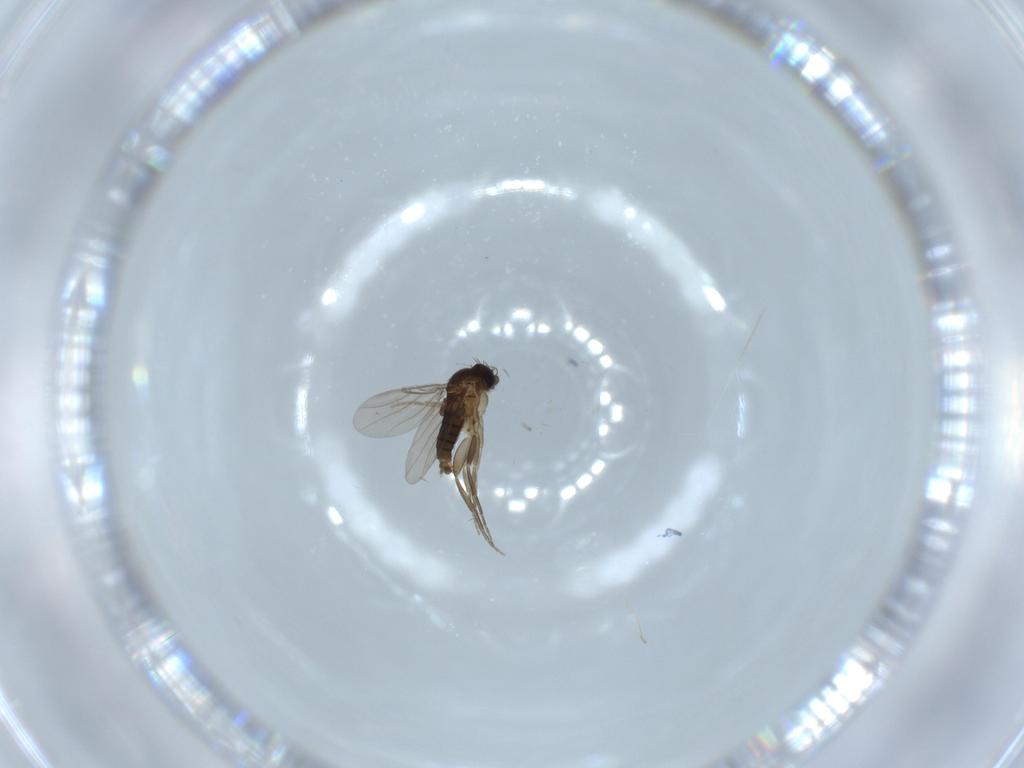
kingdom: Animalia
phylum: Arthropoda
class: Insecta
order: Diptera
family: Phoridae
